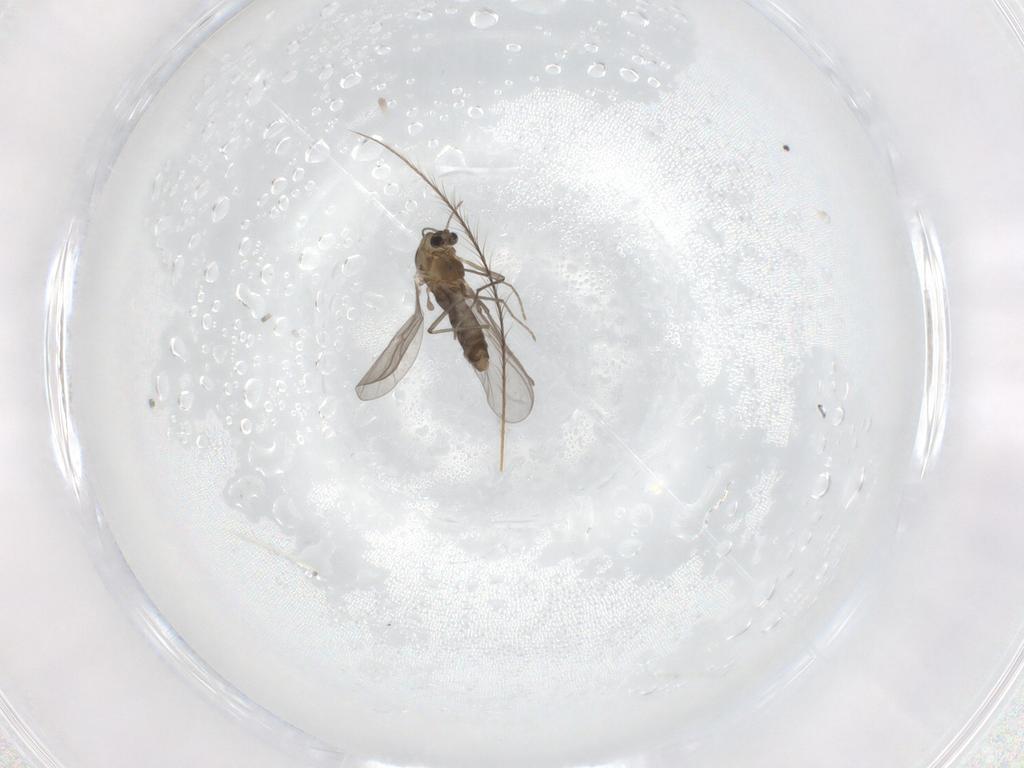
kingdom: Animalia
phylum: Arthropoda
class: Insecta
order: Diptera
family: Chironomidae
